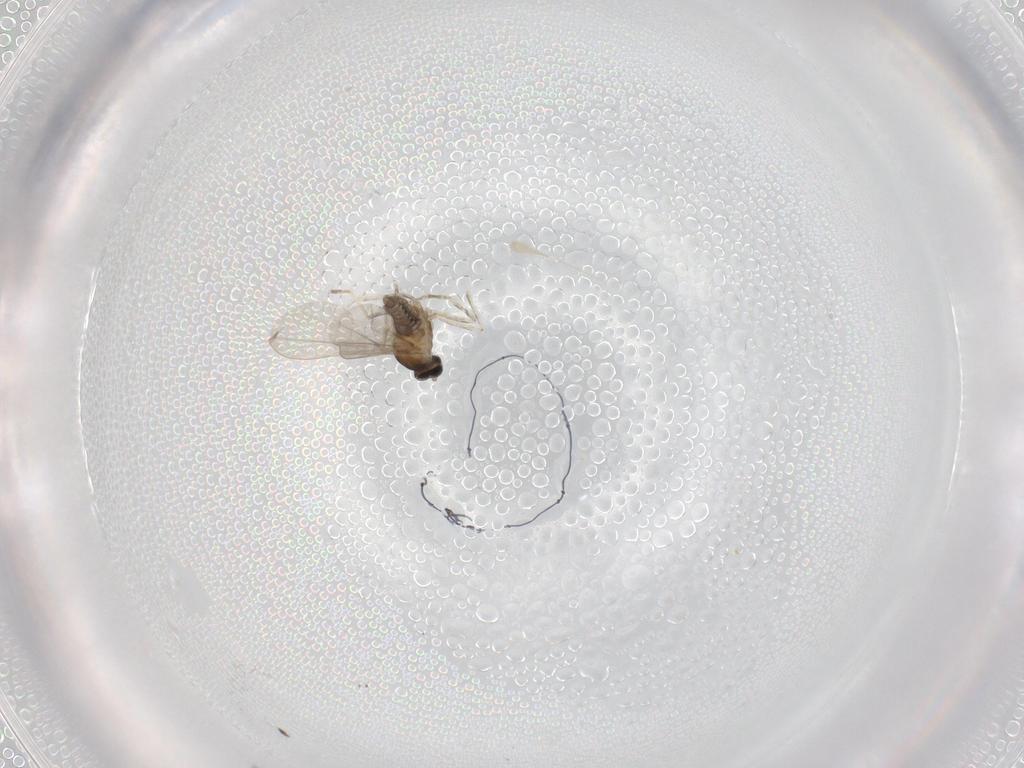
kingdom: Animalia
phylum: Arthropoda
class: Insecta
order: Diptera
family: Cecidomyiidae
